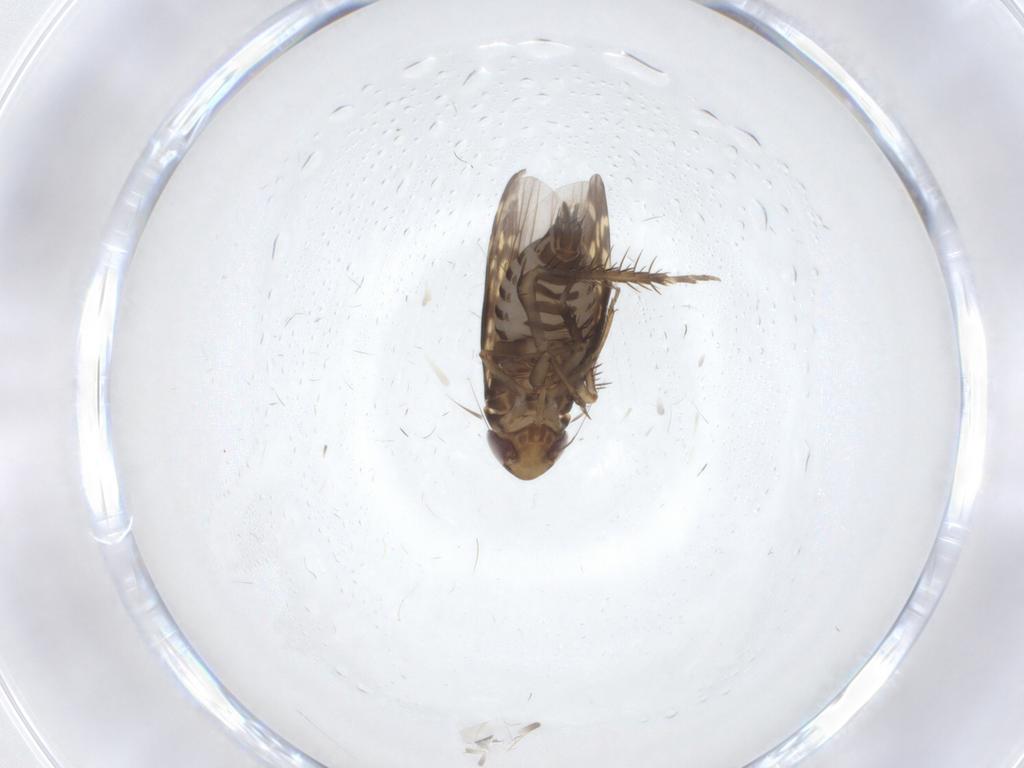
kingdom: Animalia
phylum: Arthropoda
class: Insecta
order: Hemiptera
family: Cicadellidae
